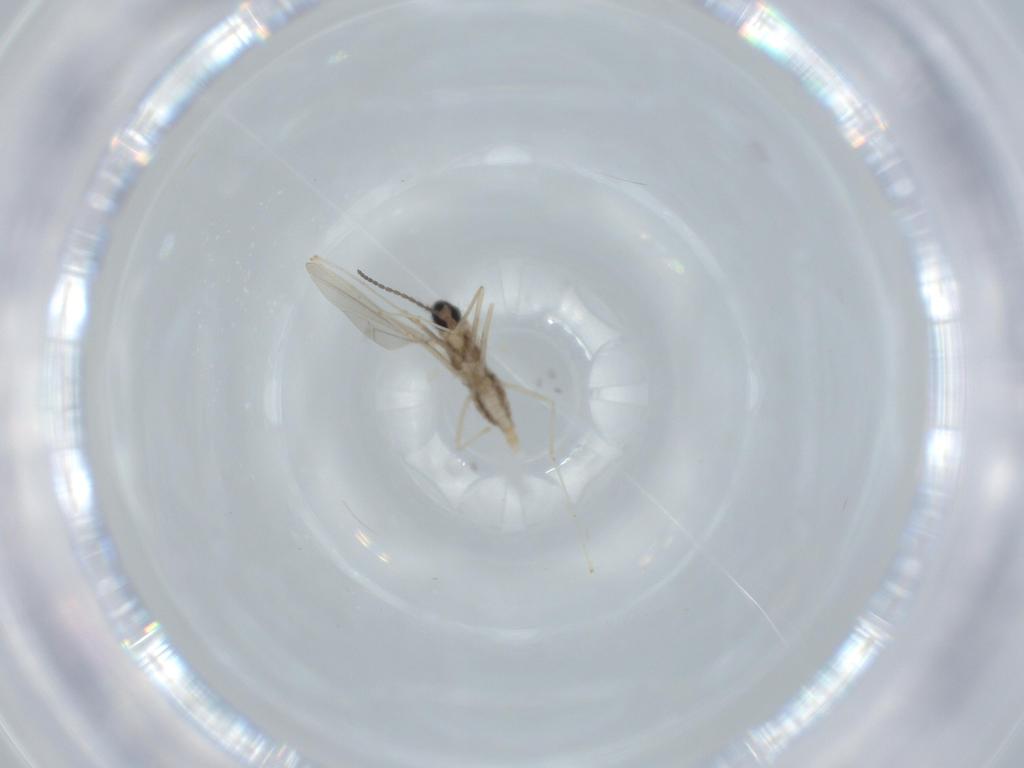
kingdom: Animalia
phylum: Arthropoda
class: Insecta
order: Diptera
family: Cecidomyiidae
